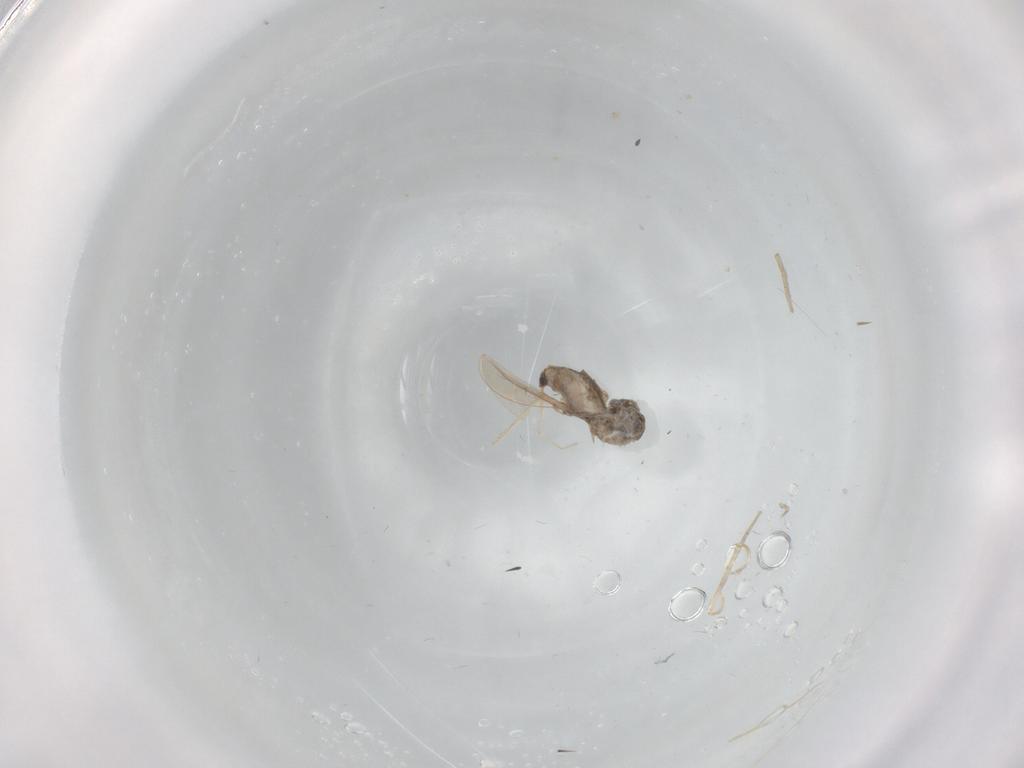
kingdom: Animalia
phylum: Arthropoda
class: Insecta
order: Diptera
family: Cecidomyiidae
